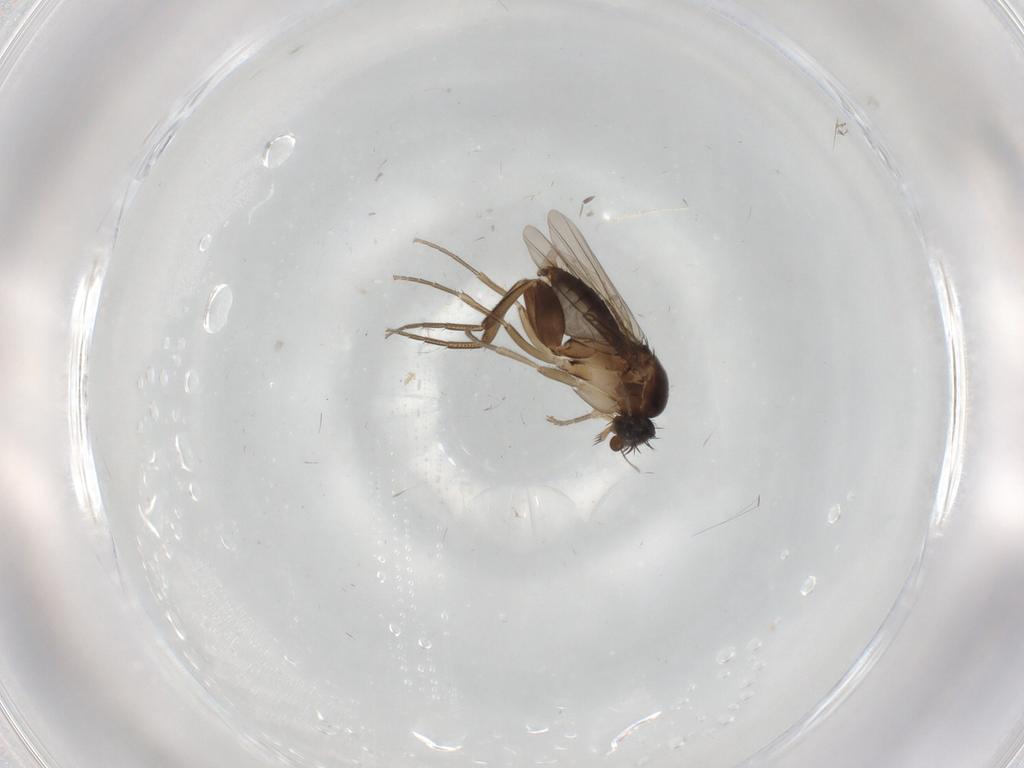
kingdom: Animalia
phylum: Arthropoda
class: Insecta
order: Diptera
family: Phoridae
